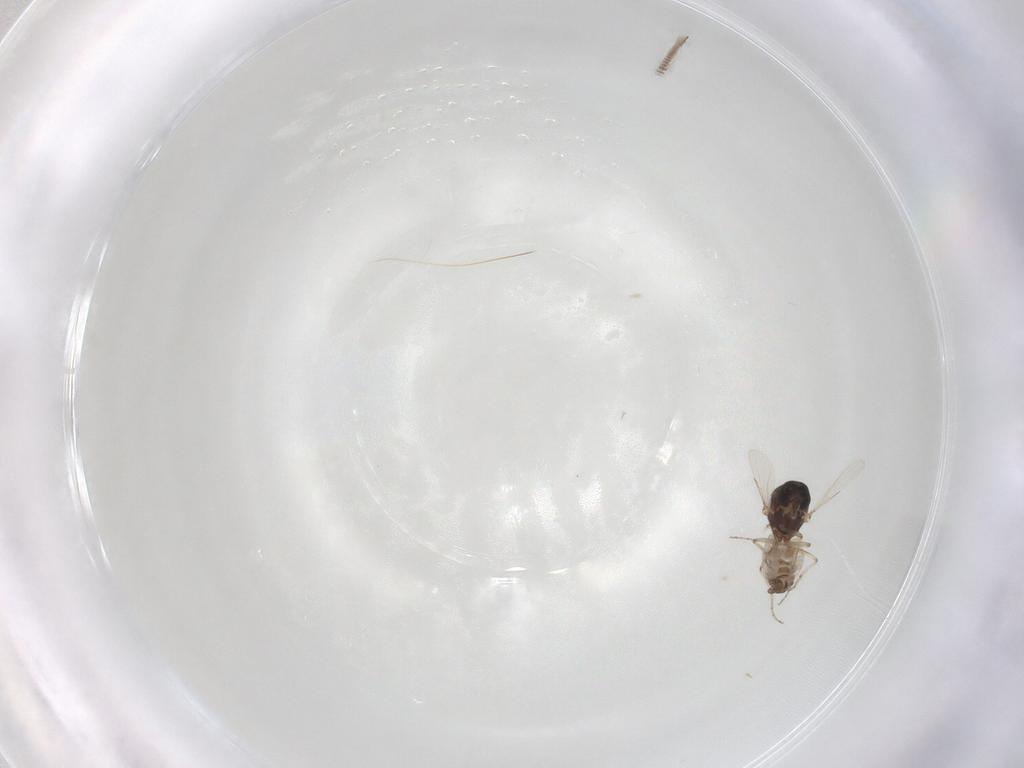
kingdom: Animalia
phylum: Arthropoda
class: Insecta
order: Diptera
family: Ceratopogonidae
